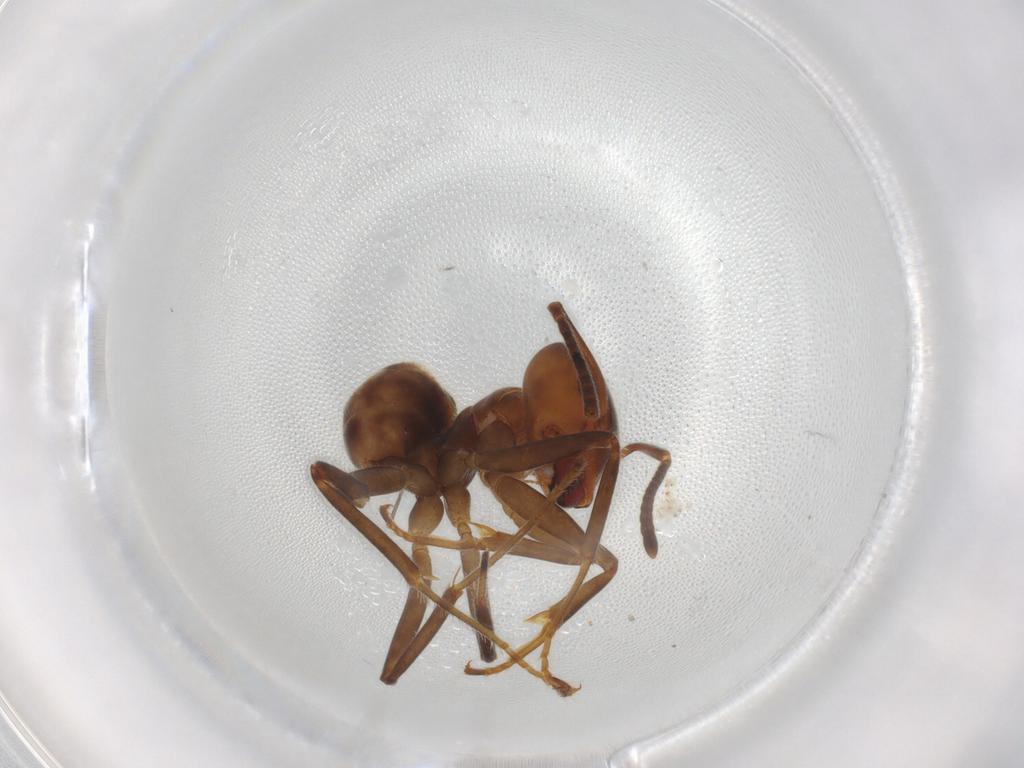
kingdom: Animalia
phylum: Arthropoda
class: Insecta
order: Hymenoptera
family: Formicidae
